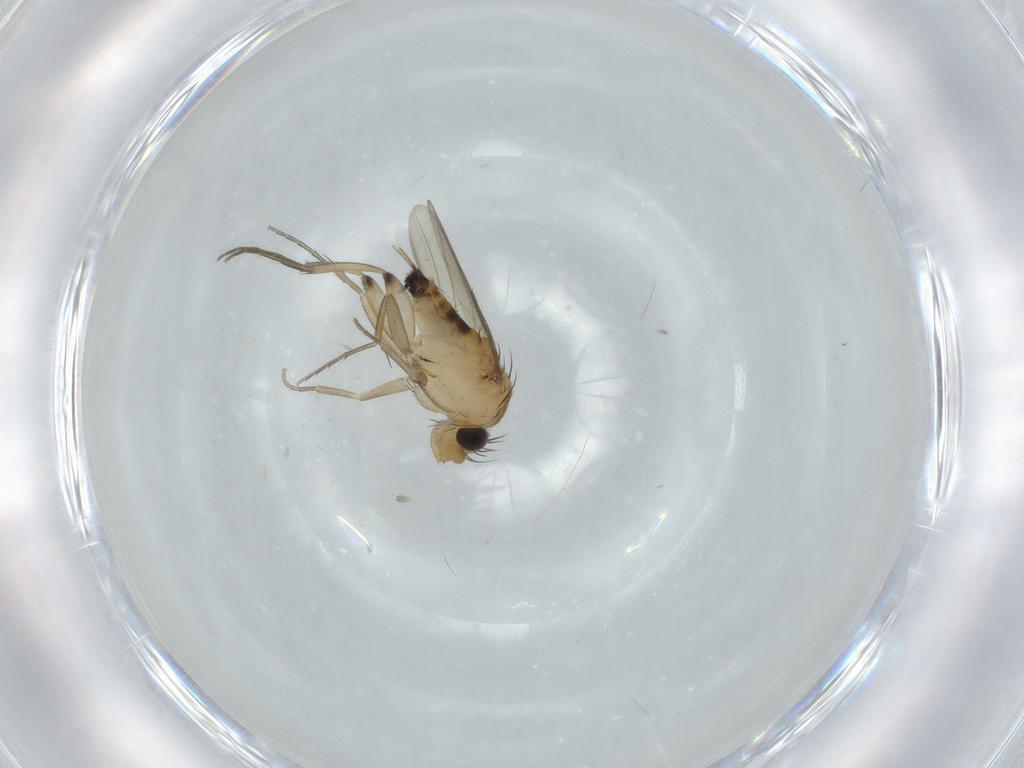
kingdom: Animalia
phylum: Arthropoda
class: Insecta
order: Diptera
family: Phoridae
